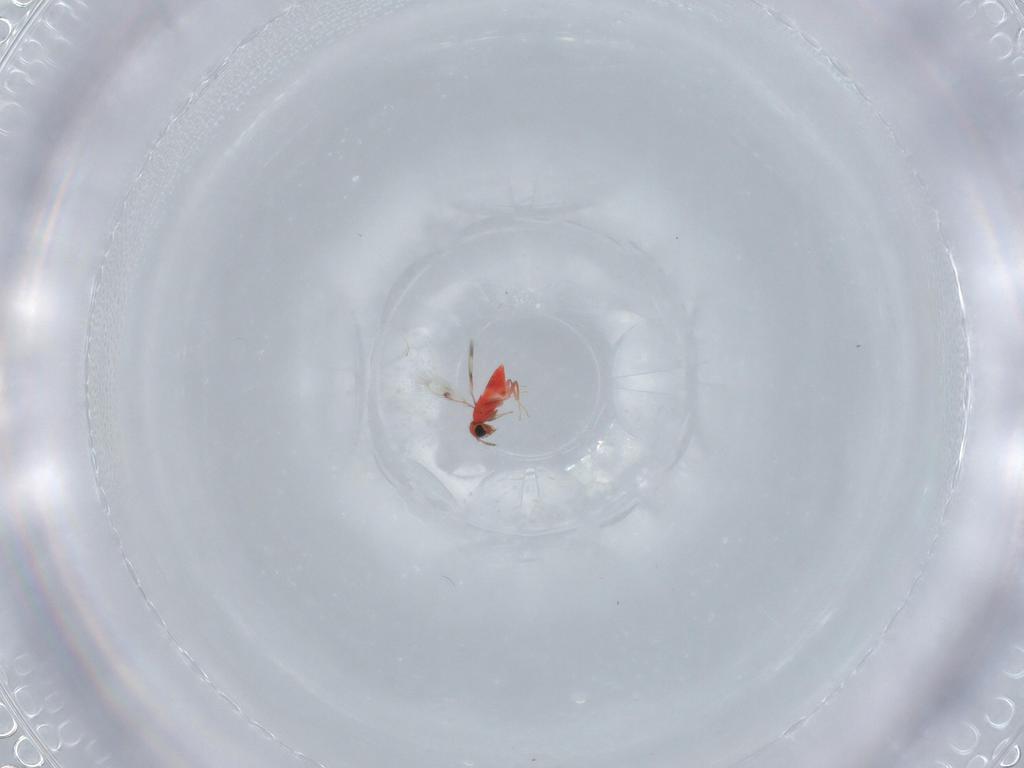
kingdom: Animalia
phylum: Arthropoda
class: Insecta
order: Hymenoptera
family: Trichogrammatidae
